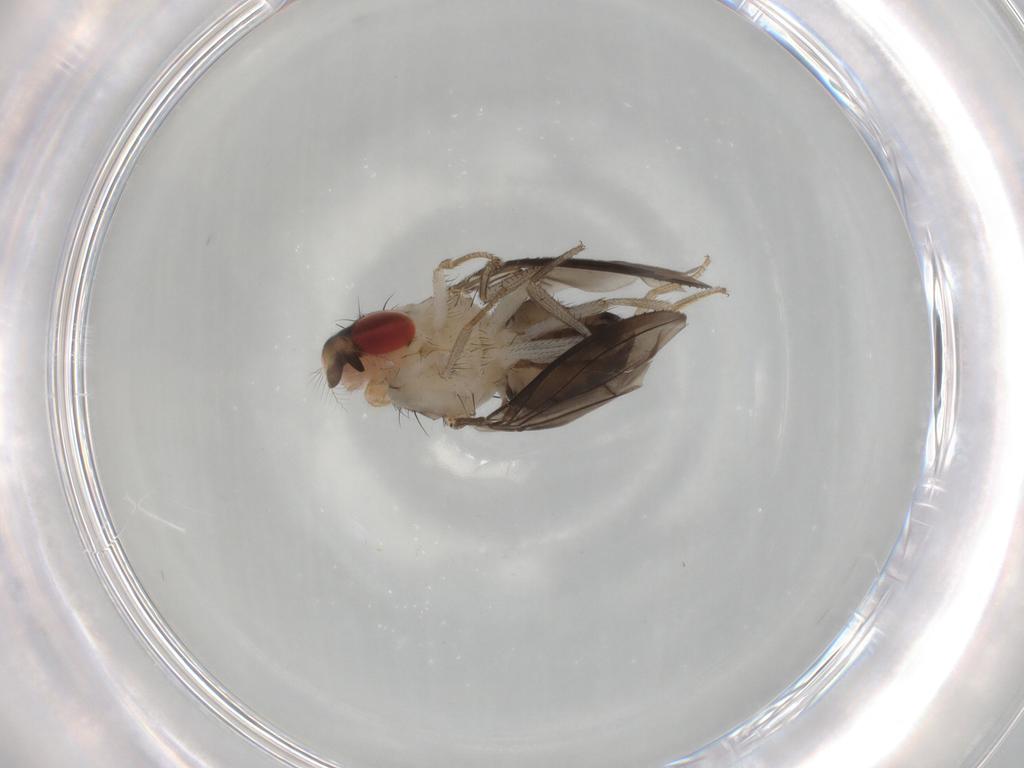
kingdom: Animalia
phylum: Arthropoda
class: Insecta
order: Diptera
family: Drosophilidae
